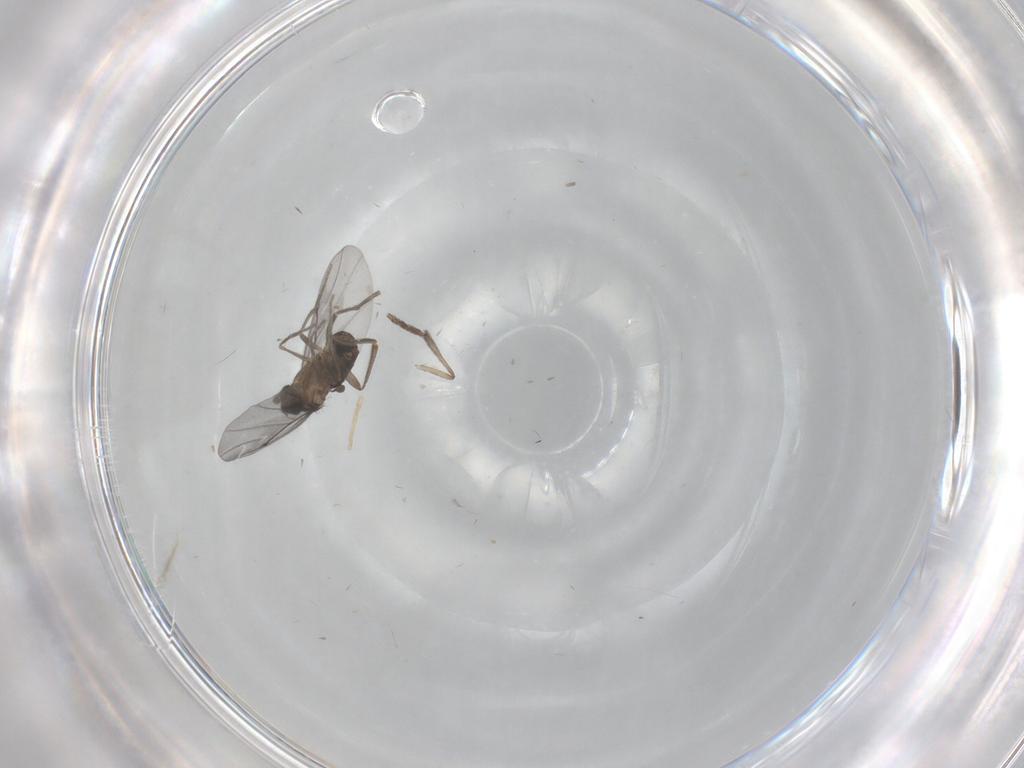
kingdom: Animalia
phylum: Arthropoda
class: Insecta
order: Diptera
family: Psychodidae
